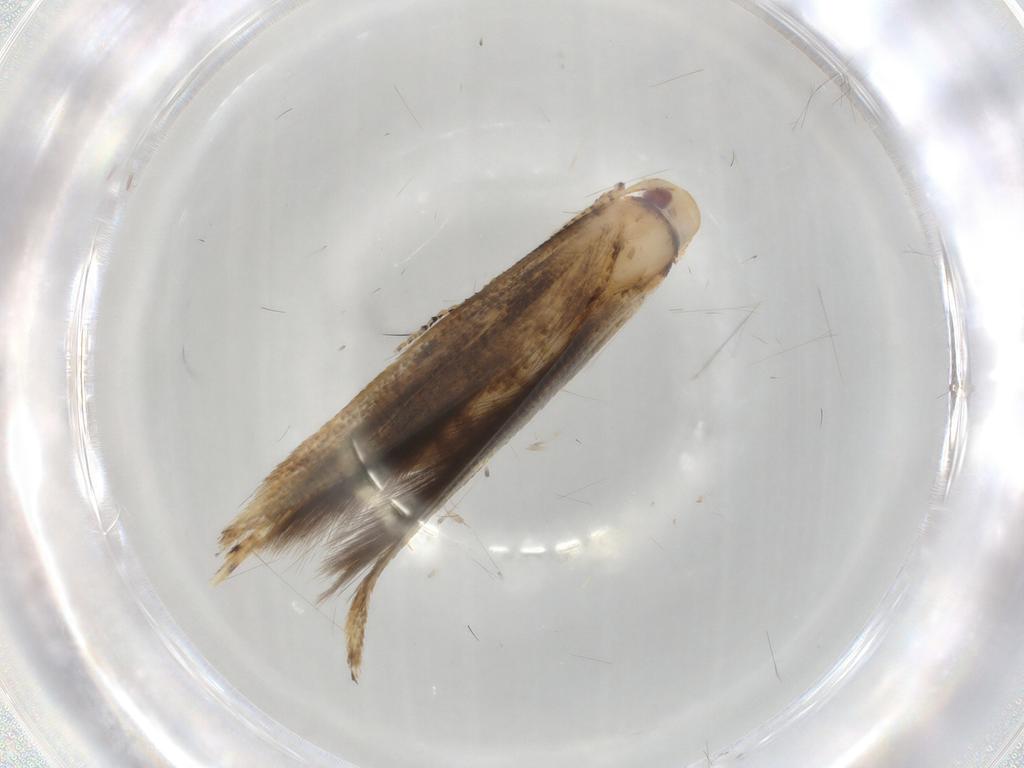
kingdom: Animalia
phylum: Arthropoda
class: Insecta
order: Lepidoptera
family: Cosmopterigidae
